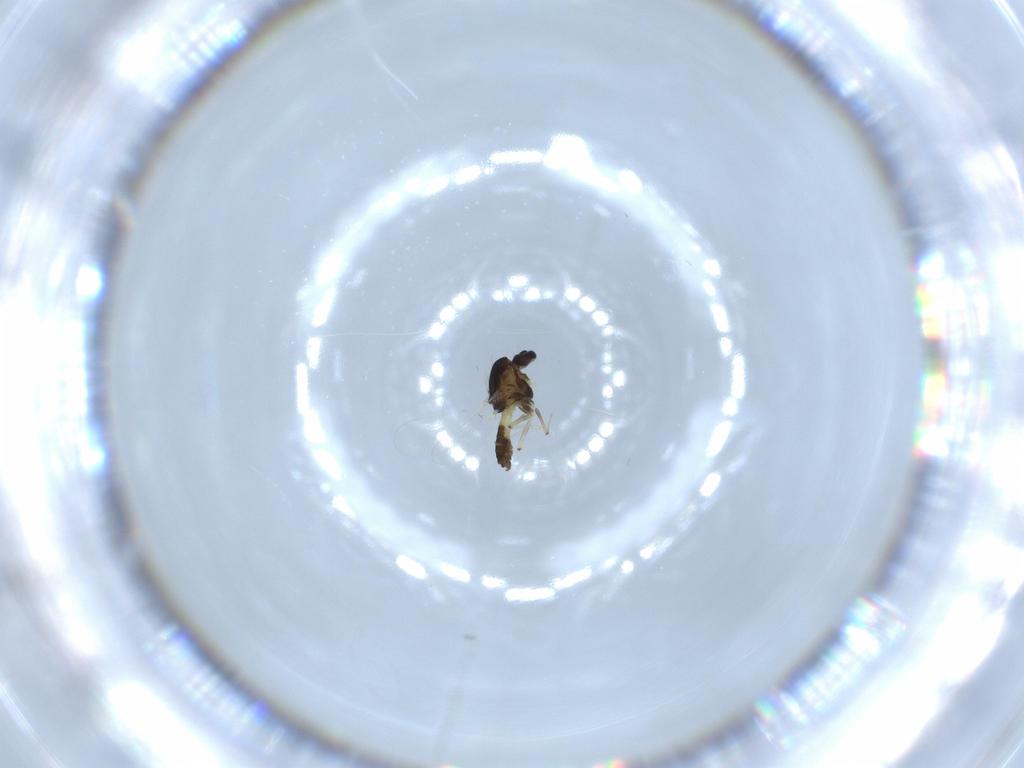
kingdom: Animalia
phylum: Arthropoda
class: Insecta
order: Diptera
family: Chironomidae
